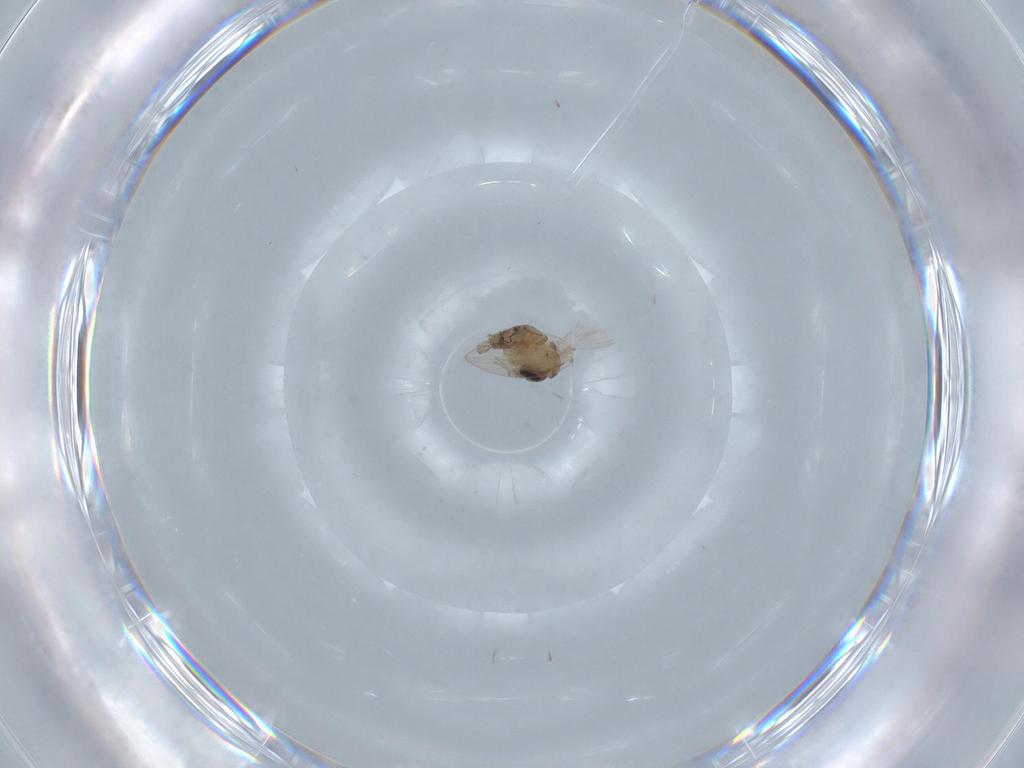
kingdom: Animalia
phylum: Arthropoda
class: Insecta
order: Diptera
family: Psychodidae
